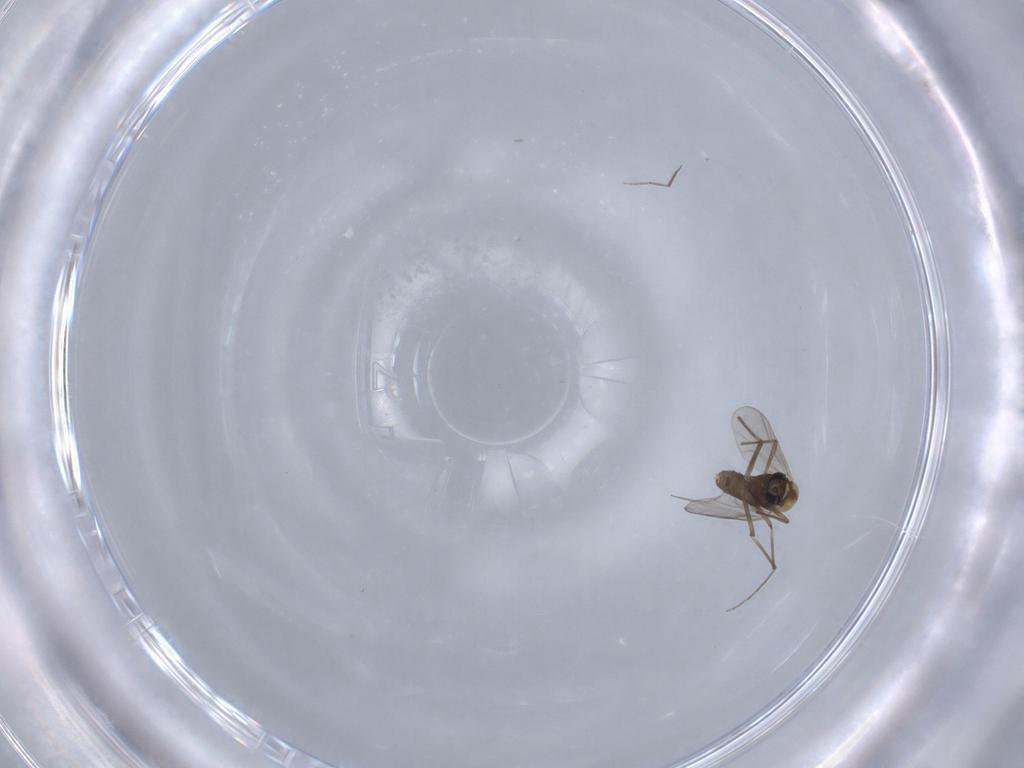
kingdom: Animalia
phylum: Arthropoda
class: Insecta
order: Diptera
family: Chironomidae
